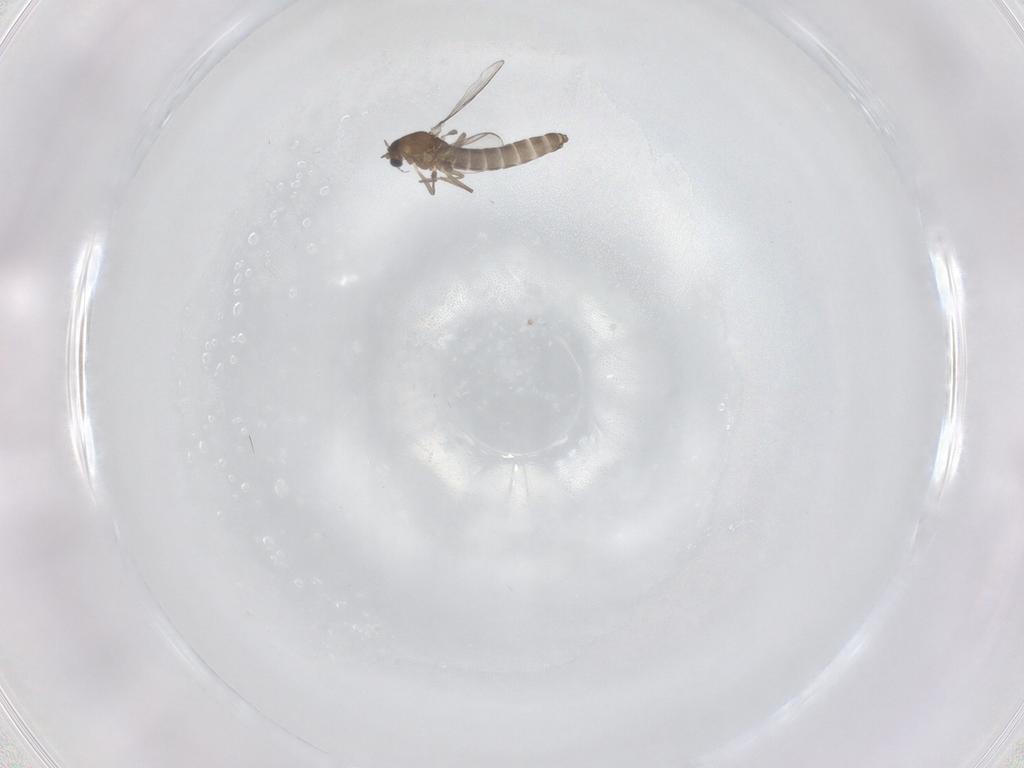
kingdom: Animalia
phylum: Arthropoda
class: Insecta
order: Diptera
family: Chironomidae
